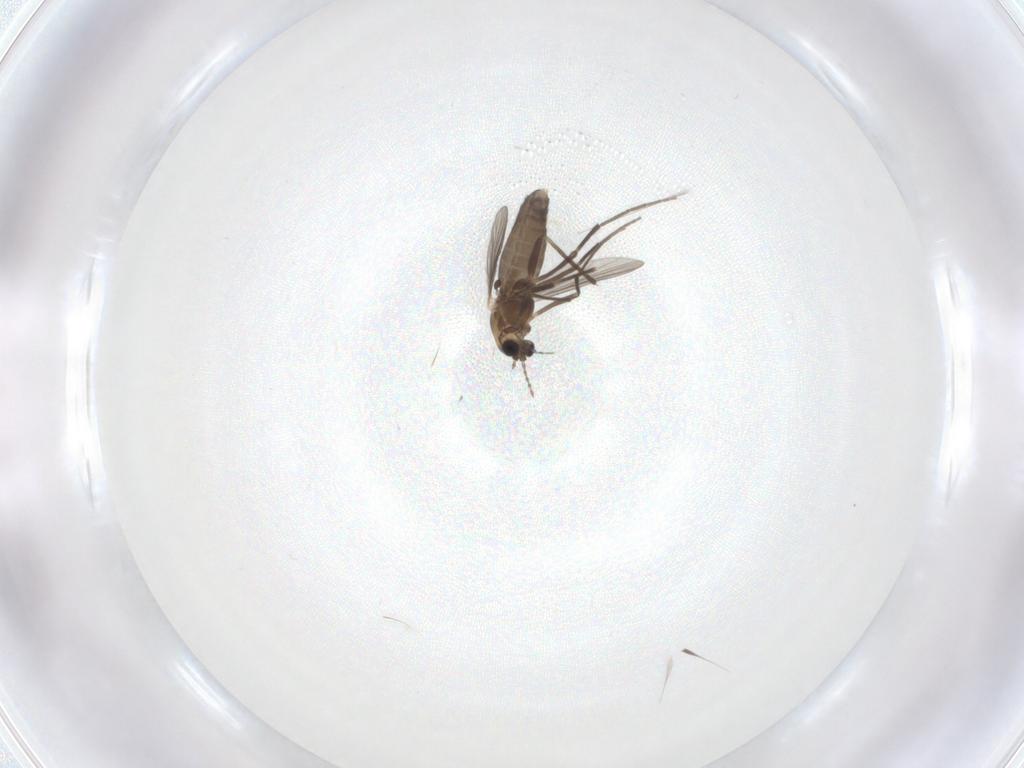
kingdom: Animalia
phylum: Arthropoda
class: Insecta
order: Diptera
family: Chironomidae
